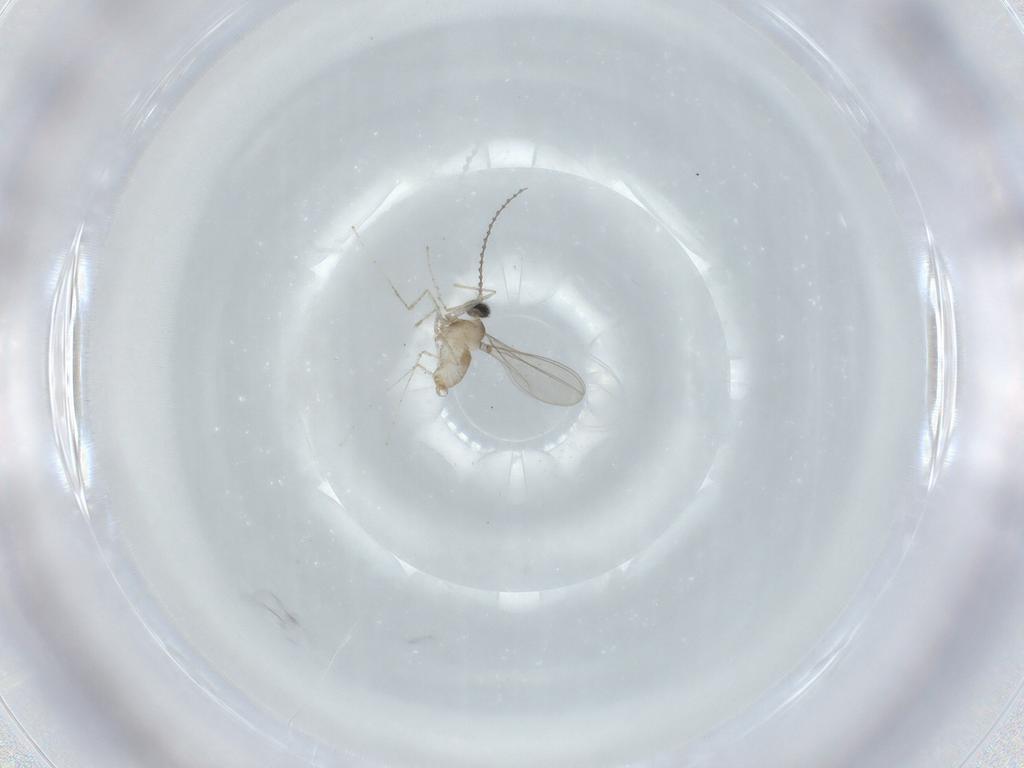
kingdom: Animalia
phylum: Arthropoda
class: Insecta
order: Diptera
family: Cecidomyiidae
